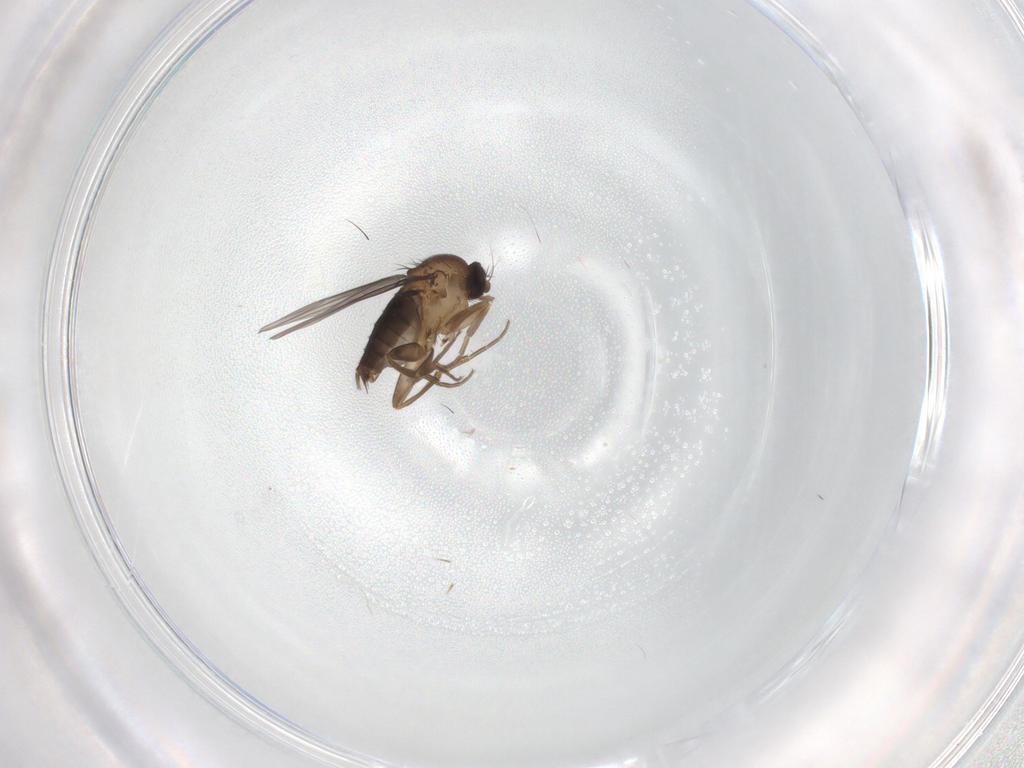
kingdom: Animalia
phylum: Arthropoda
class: Insecta
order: Diptera
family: Phoridae
